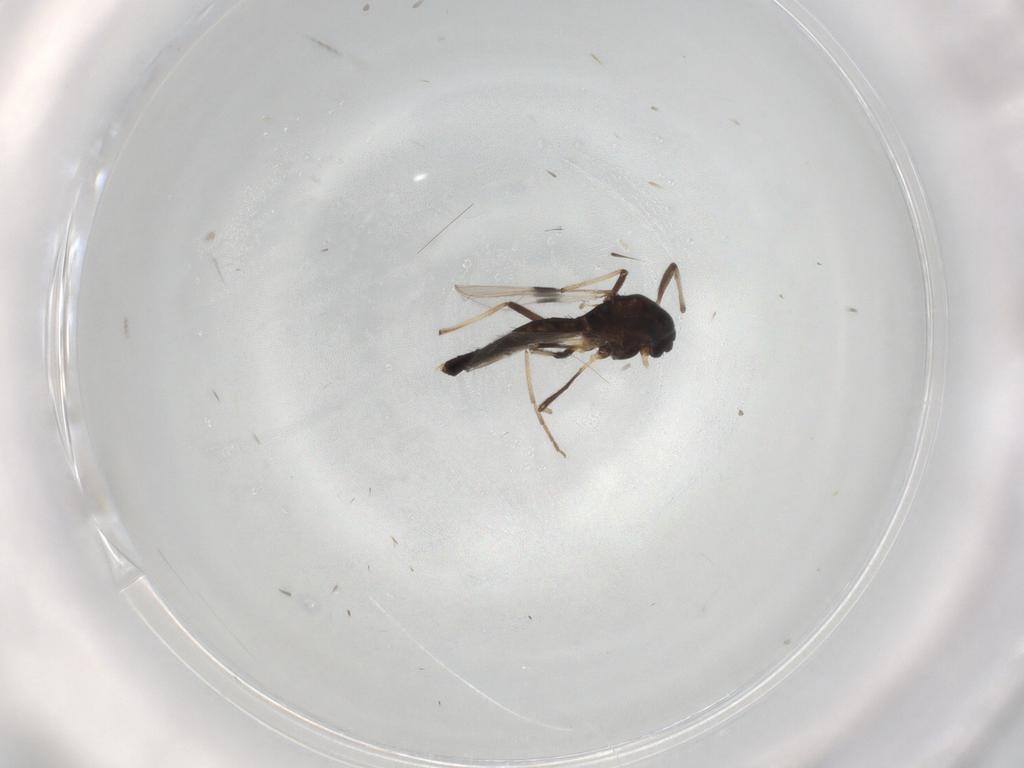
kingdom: Animalia
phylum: Arthropoda
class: Insecta
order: Diptera
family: Chironomidae
